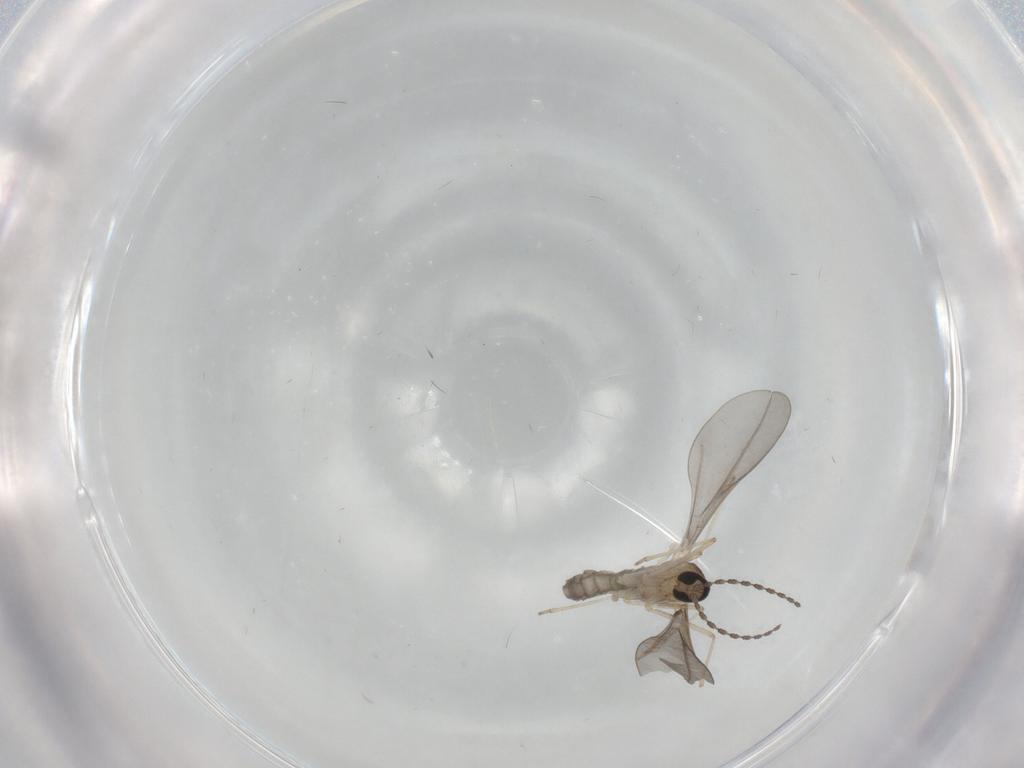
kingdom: Animalia
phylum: Arthropoda
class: Insecta
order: Diptera
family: Cecidomyiidae
